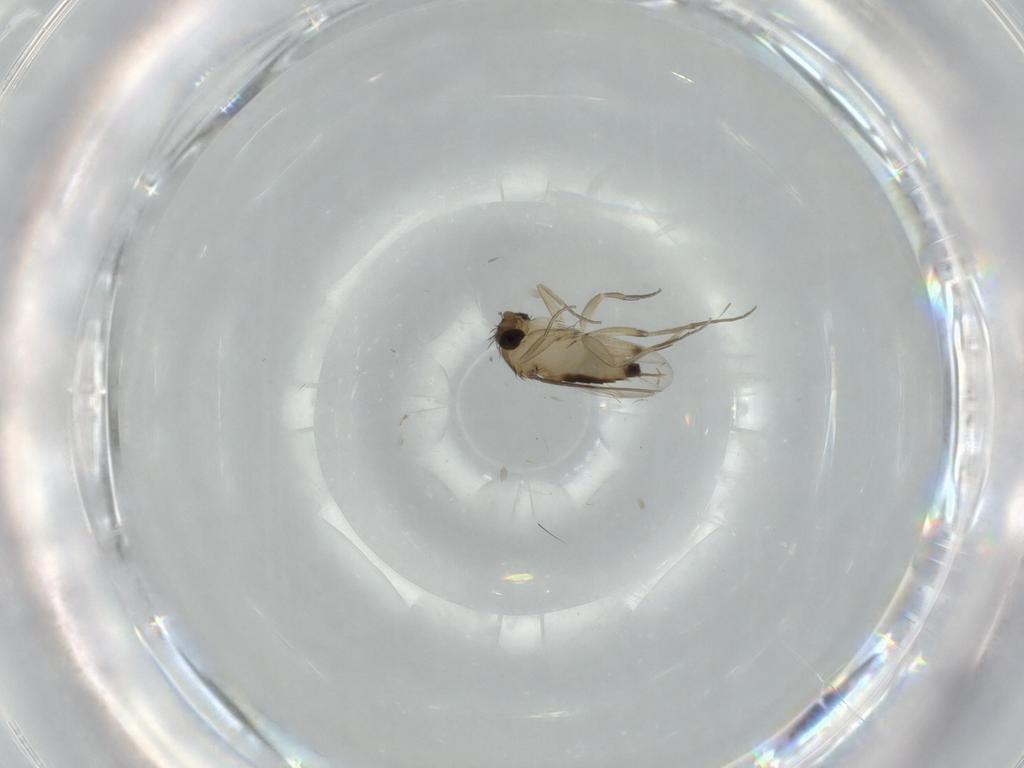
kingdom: Animalia
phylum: Arthropoda
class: Insecta
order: Diptera
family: Phoridae
